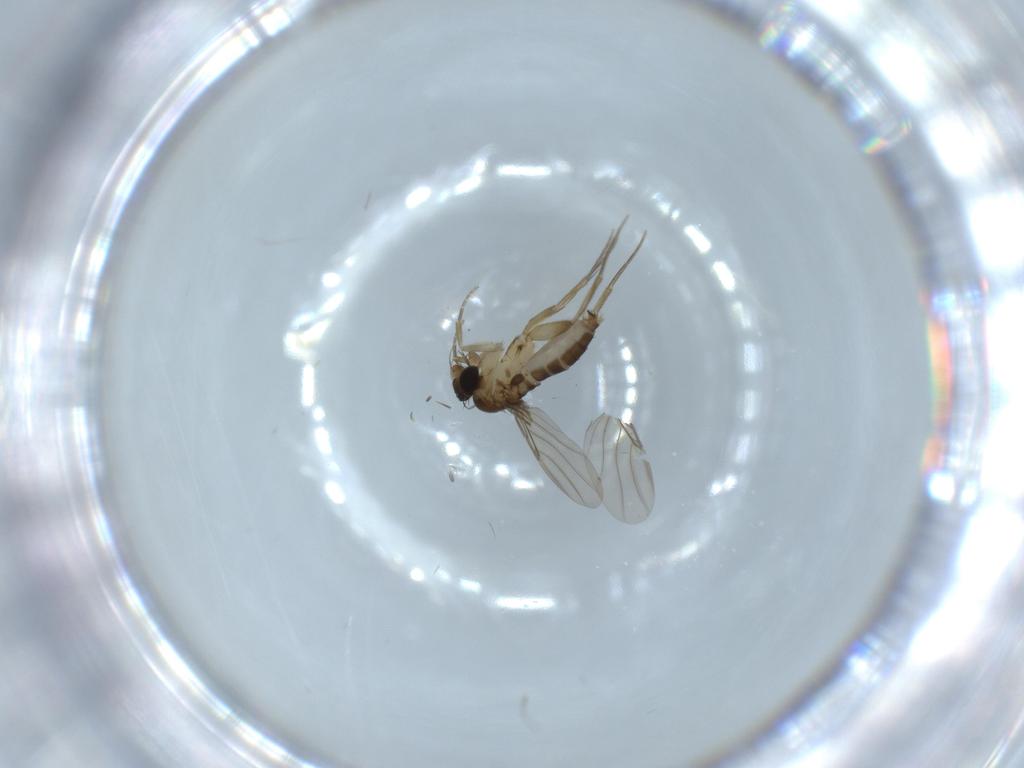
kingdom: Animalia
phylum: Arthropoda
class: Insecta
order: Diptera
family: Phoridae
